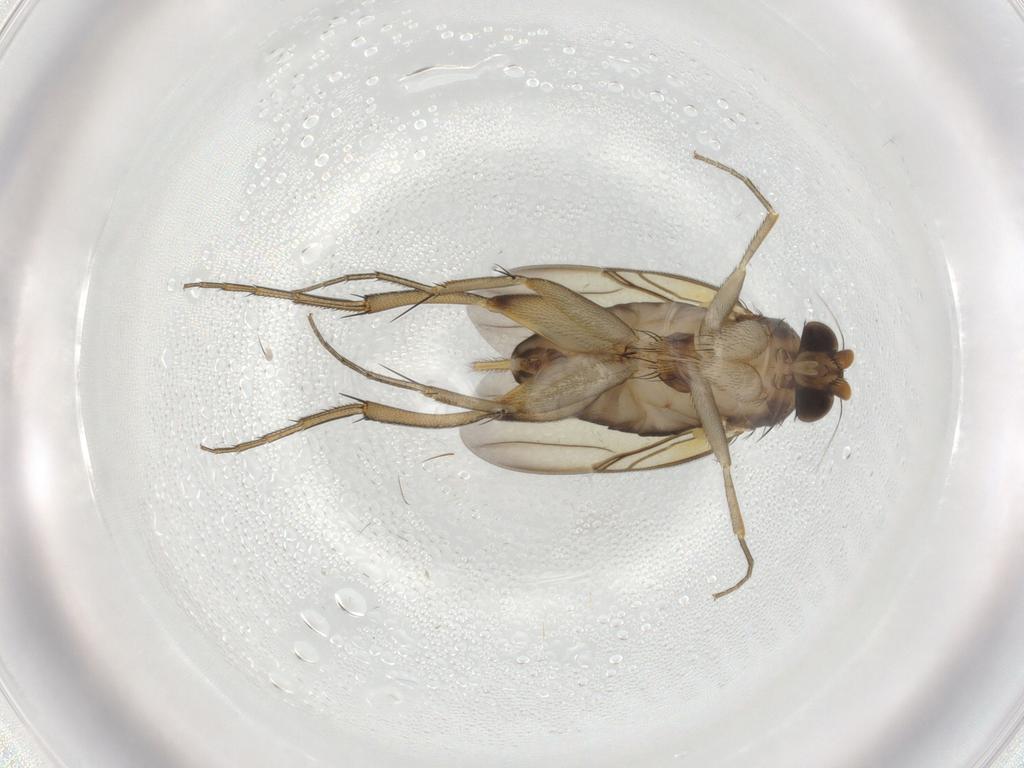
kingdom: Animalia
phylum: Arthropoda
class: Insecta
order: Diptera
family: Phoridae
